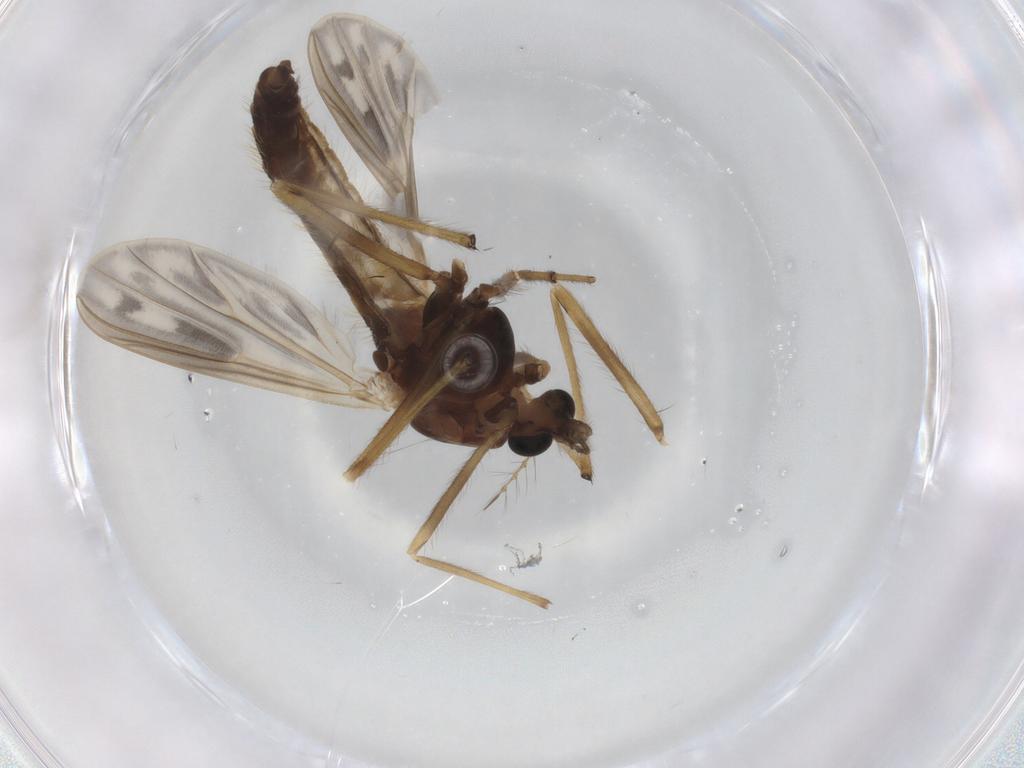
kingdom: Animalia
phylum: Arthropoda
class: Insecta
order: Diptera
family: Chironomidae
